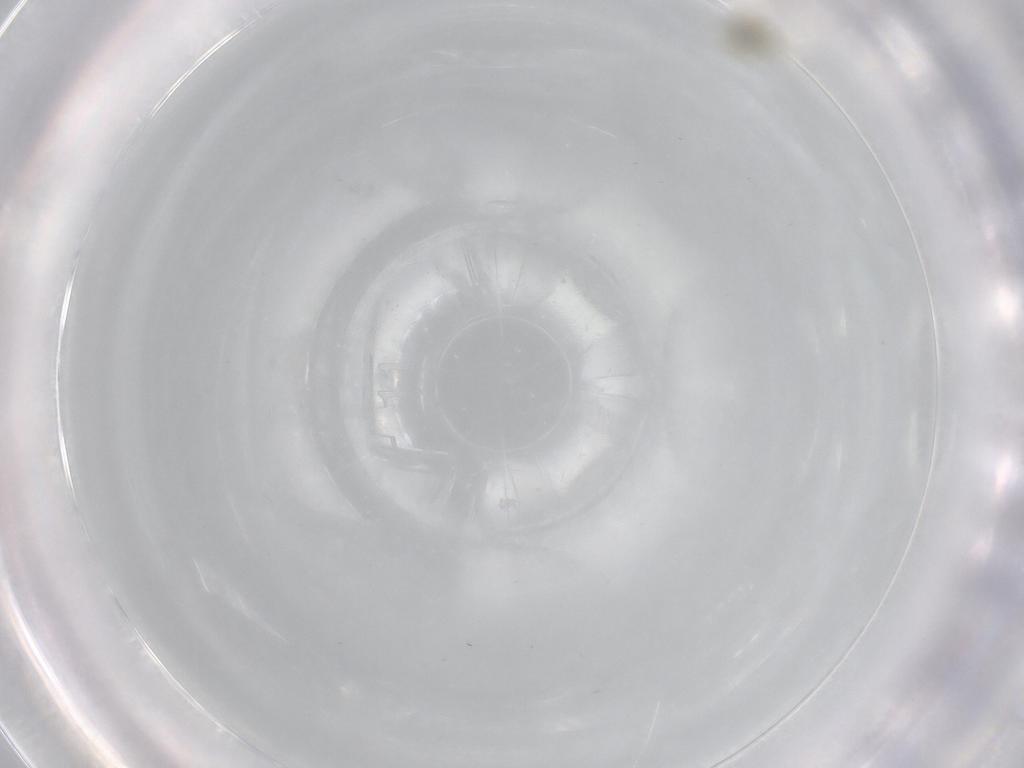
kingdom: Animalia
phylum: Arthropoda
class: Insecta
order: Hemiptera
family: Aleyrodidae
